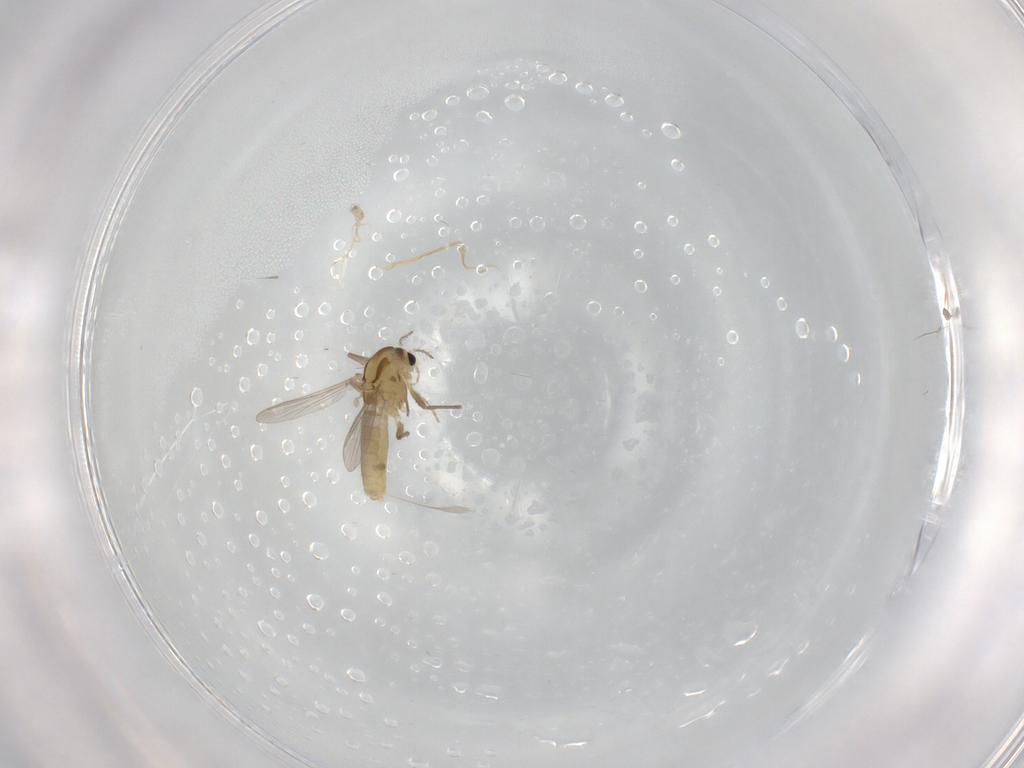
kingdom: Animalia
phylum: Arthropoda
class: Insecta
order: Diptera
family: Chironomidae
